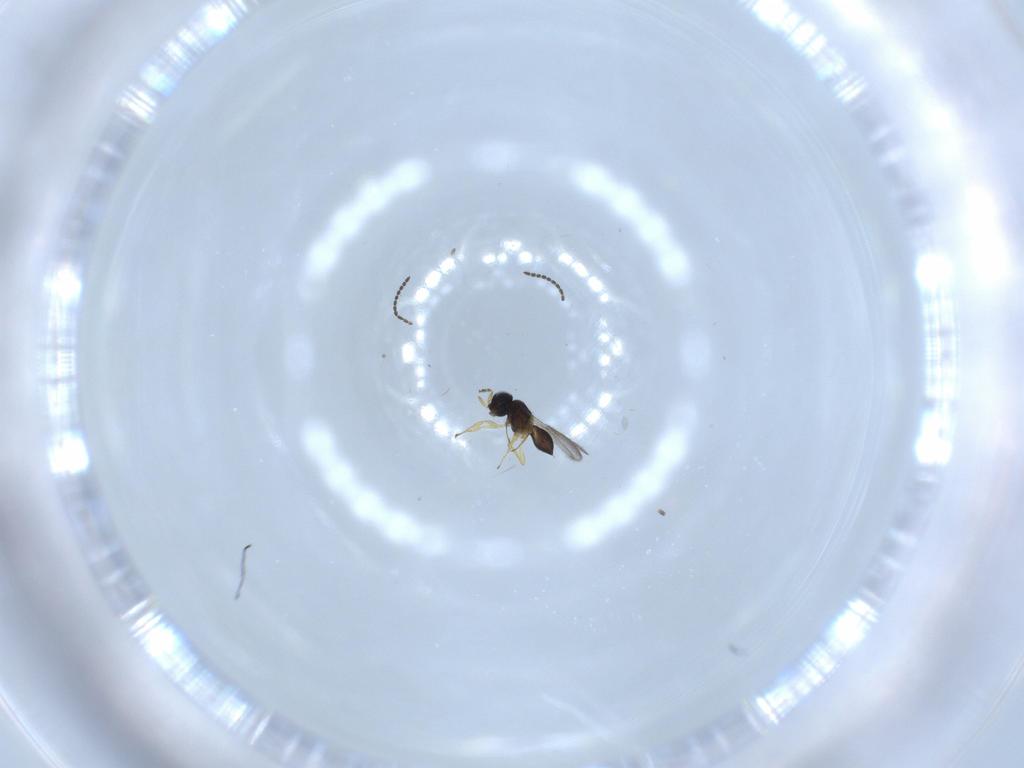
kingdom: Animalia
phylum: Arthropoda
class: Insecta
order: Hymenoptera
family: Scelionidae
